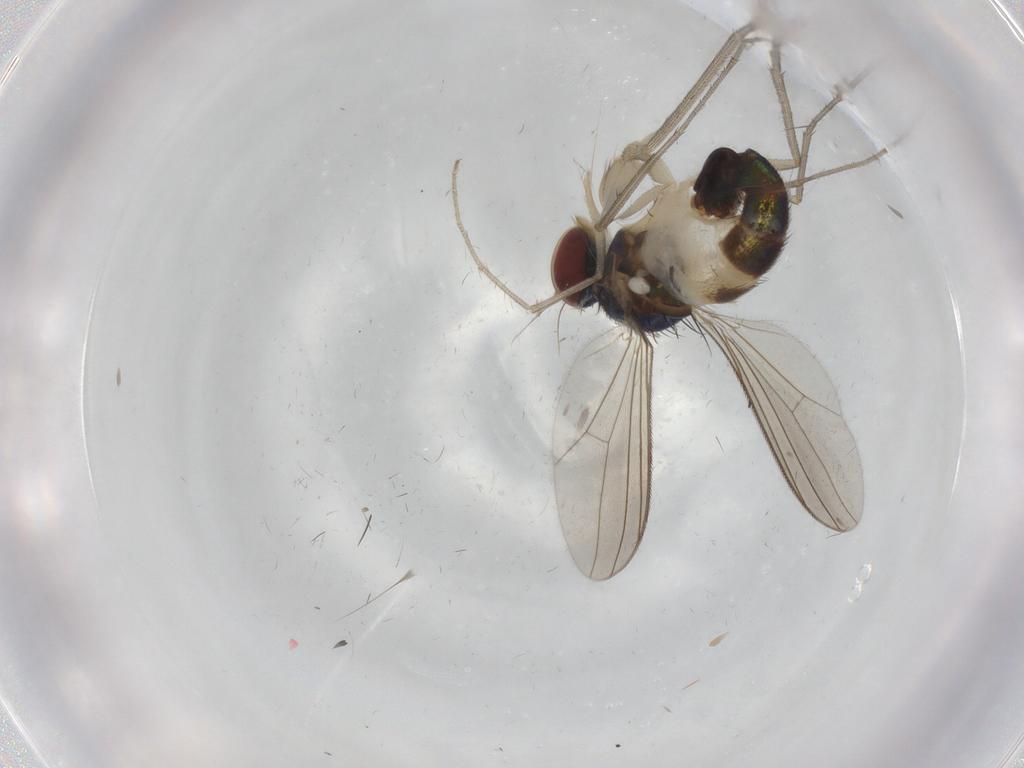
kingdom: Animalia
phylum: Arthropoda
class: Insecta
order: Diptera
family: Dolichopodidae
